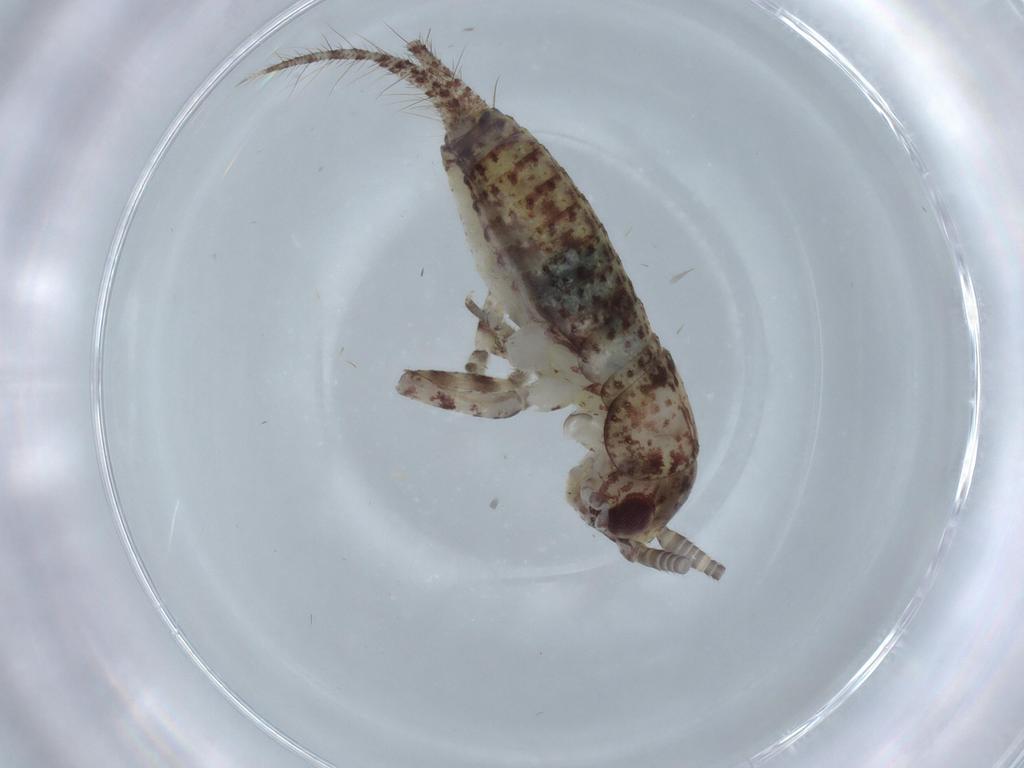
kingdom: Animalia
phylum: Arthropoda
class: Insecta
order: Orthoptera
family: Gryllidae
